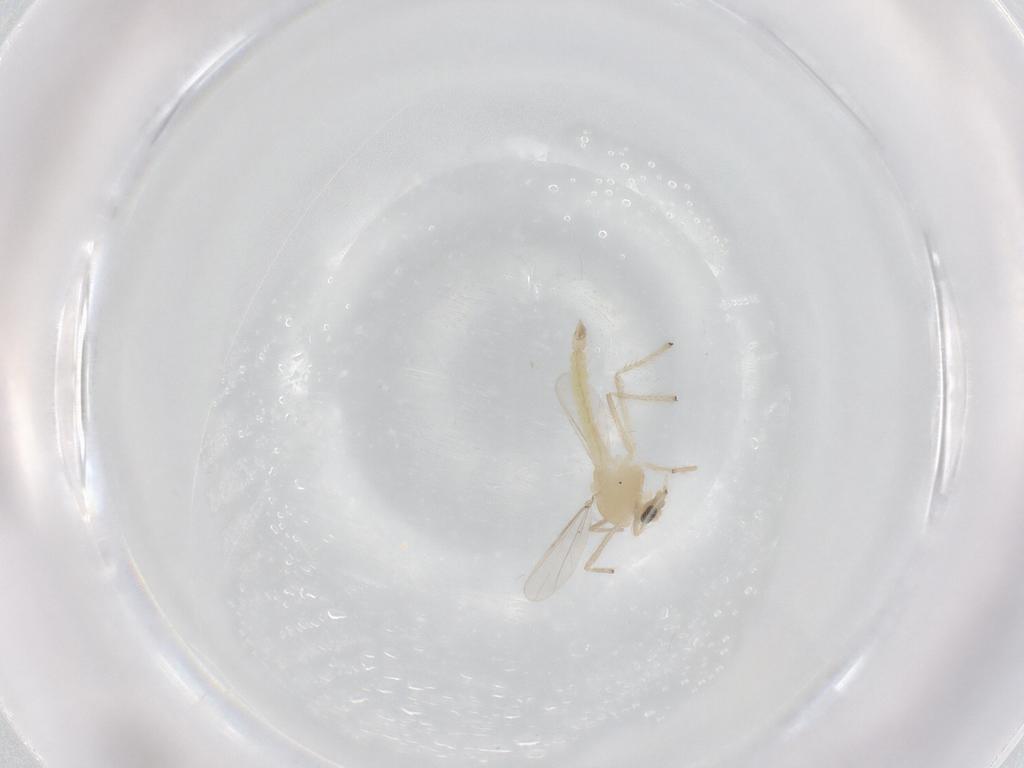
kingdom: Animalia
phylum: Arthropoda
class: Insecta
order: Diptera
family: Chironomidae
